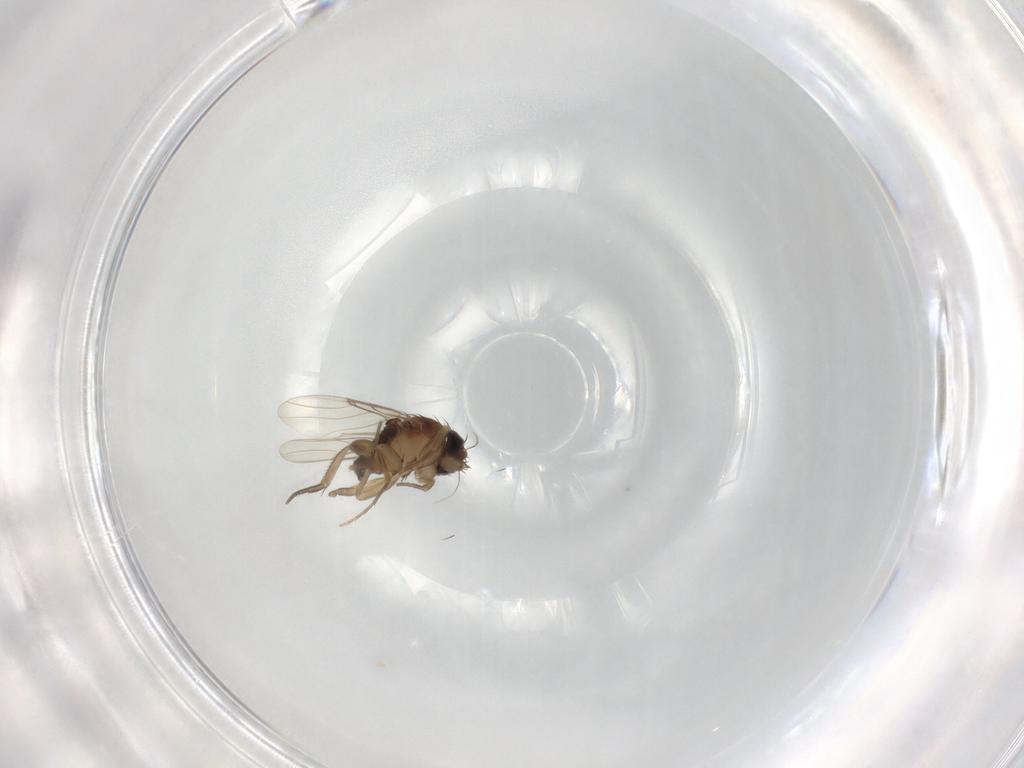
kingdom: Animalia
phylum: Arthropoda
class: Insecta
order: Diptera
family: Phoridae
